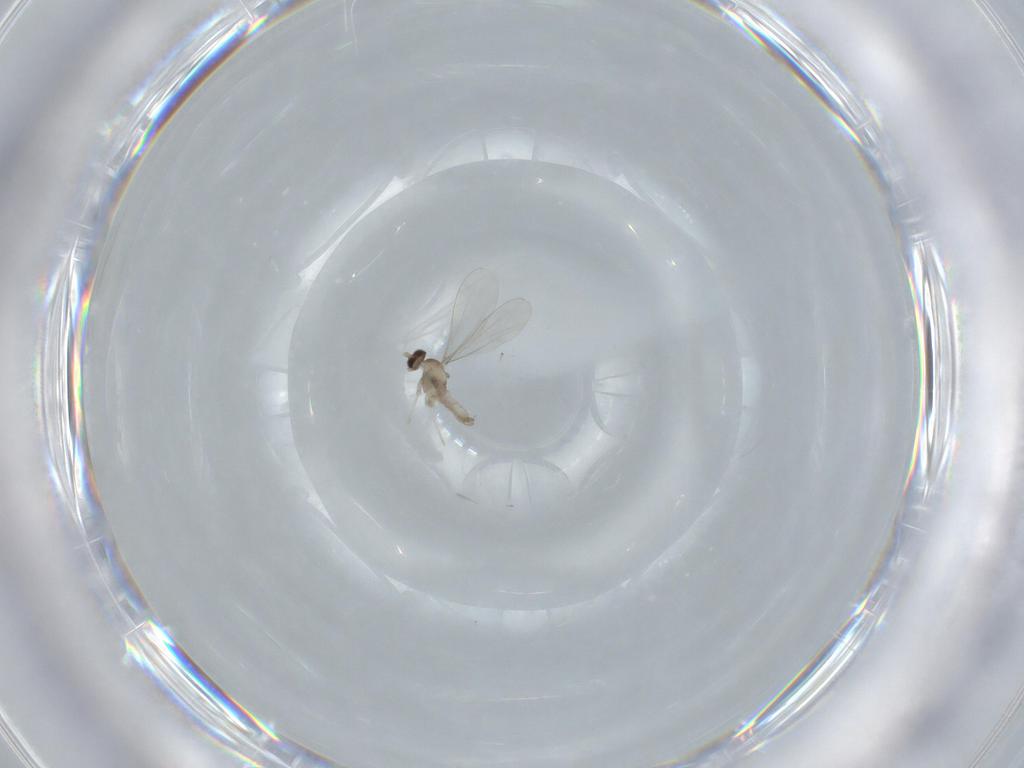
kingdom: Animalia
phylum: Arthropoda
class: Insecta
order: Diptera
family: Cecidomyiidae
